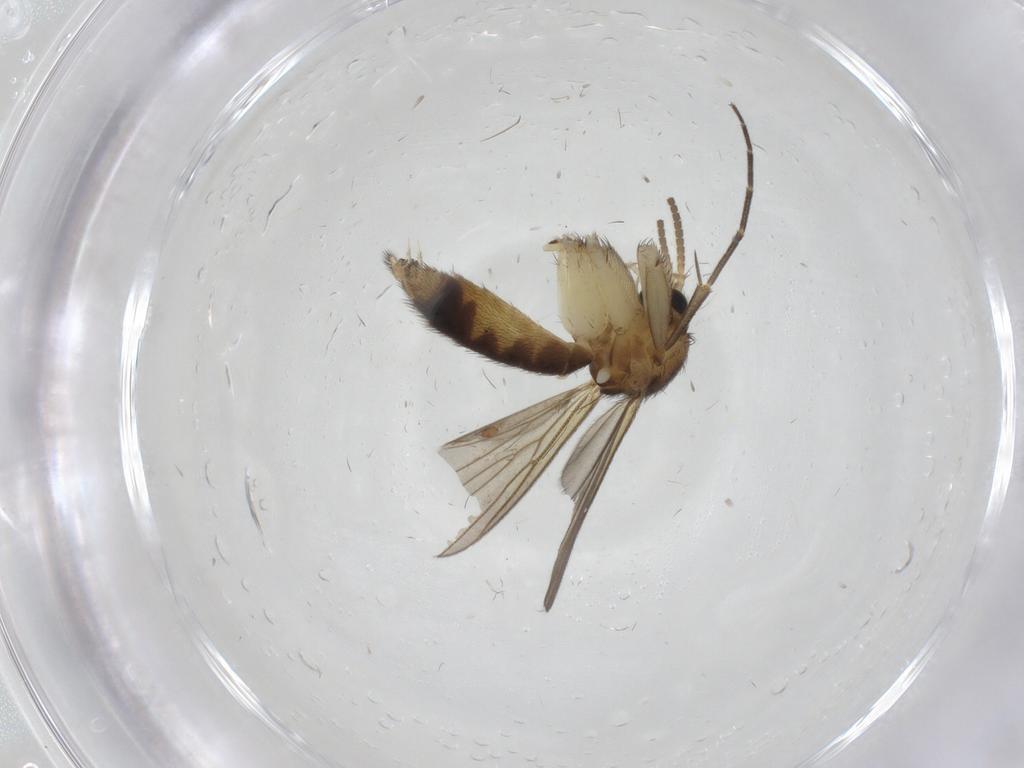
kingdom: Animalia
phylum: Arthropoda
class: Insecta
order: Diptera
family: Mycetophilidae
